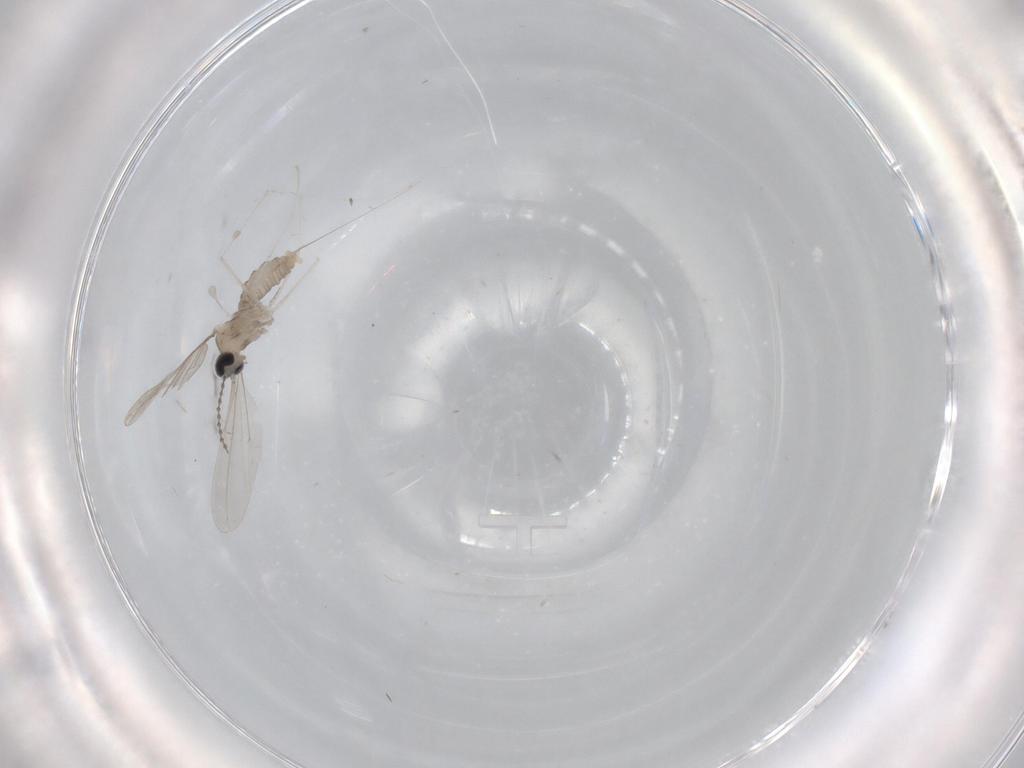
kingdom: Animalia
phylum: Arthropoda
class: Insecta
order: Diptera
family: Cecidomyiidae
